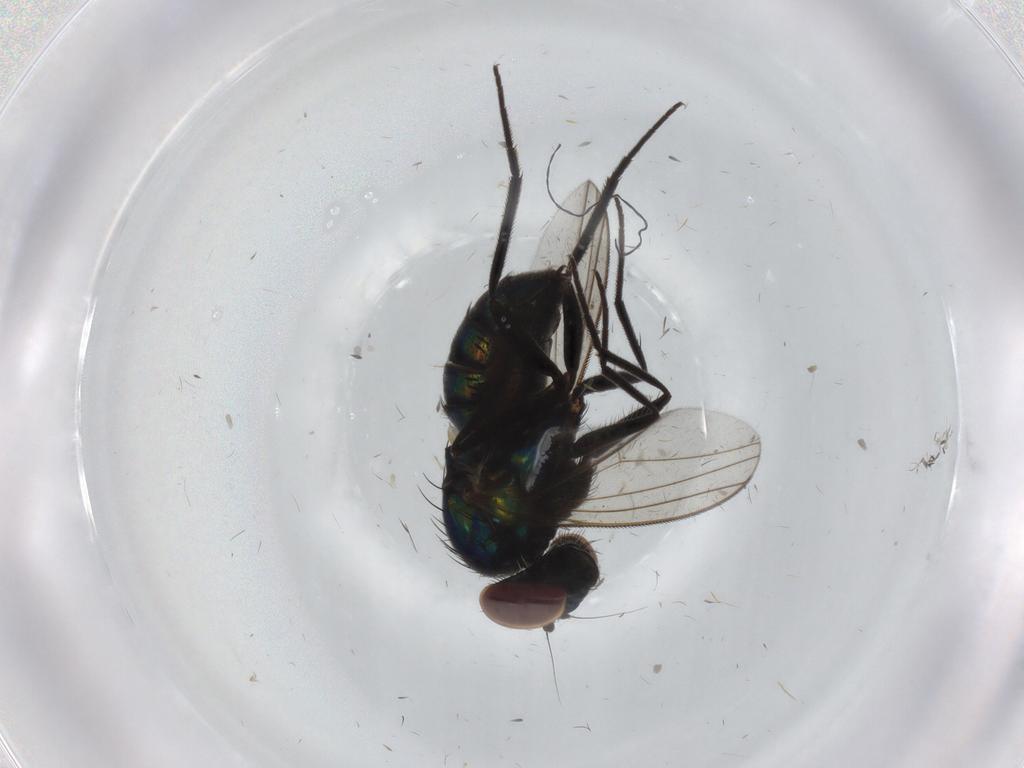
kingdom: Animalia
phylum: Arthropoda
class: Insecta
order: Diptera
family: Dolichopodidae
